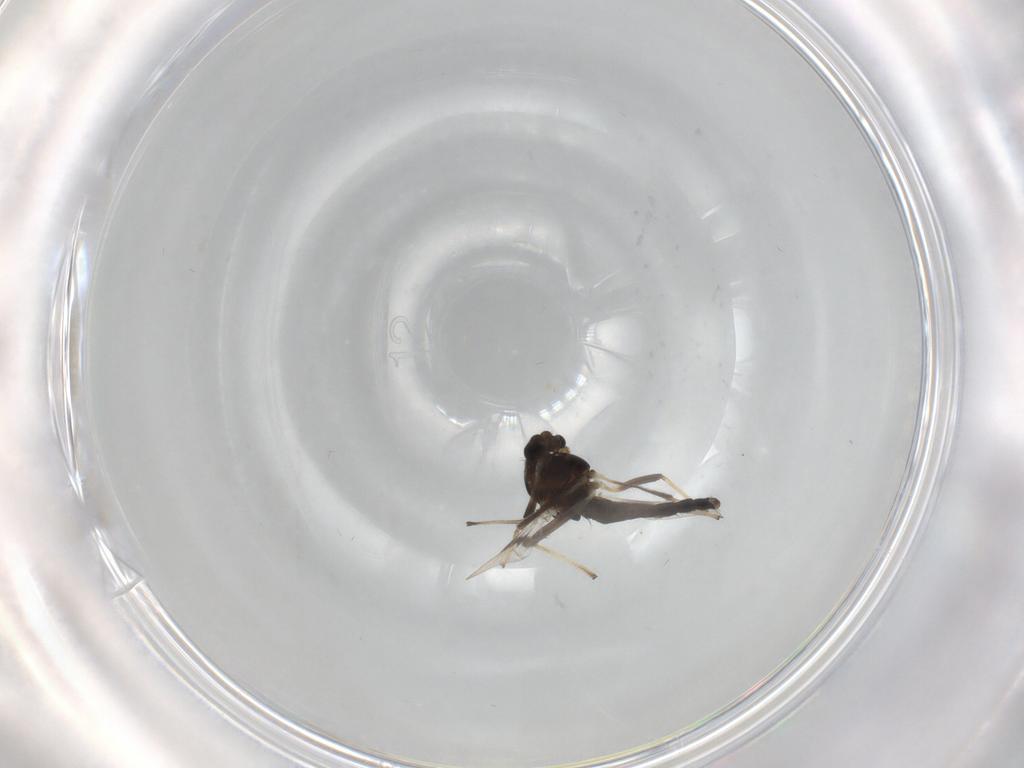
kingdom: Animalia
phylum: Arthropoda
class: Insecta
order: Diptera
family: Chironomidae
